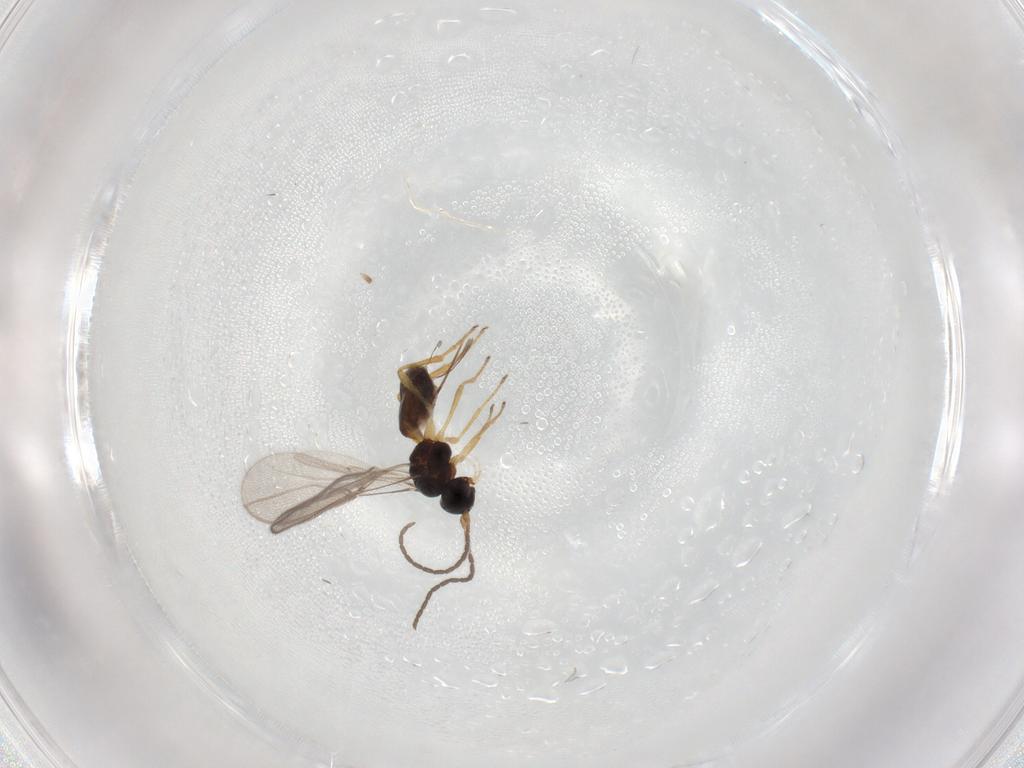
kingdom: Animalia
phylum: Arthropoda
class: Insecta
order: Hymenoptera
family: Braconidae
